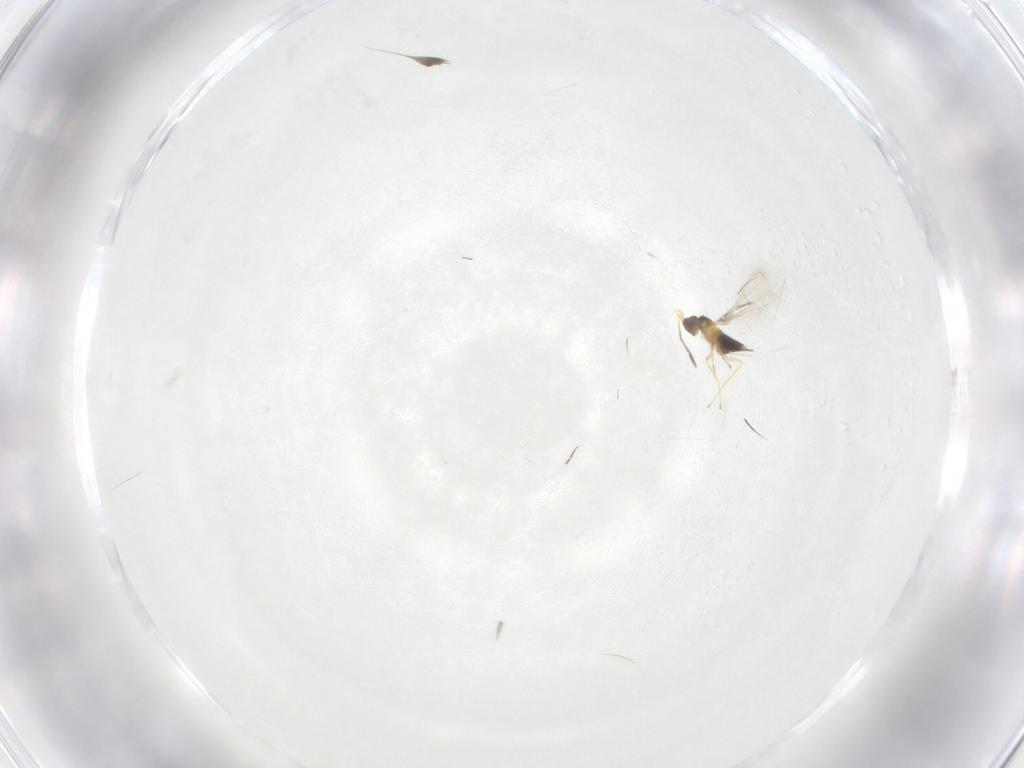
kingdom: Animalia
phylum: Arthropoda
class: Insecta
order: Hymenoptera
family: Mymaridae
